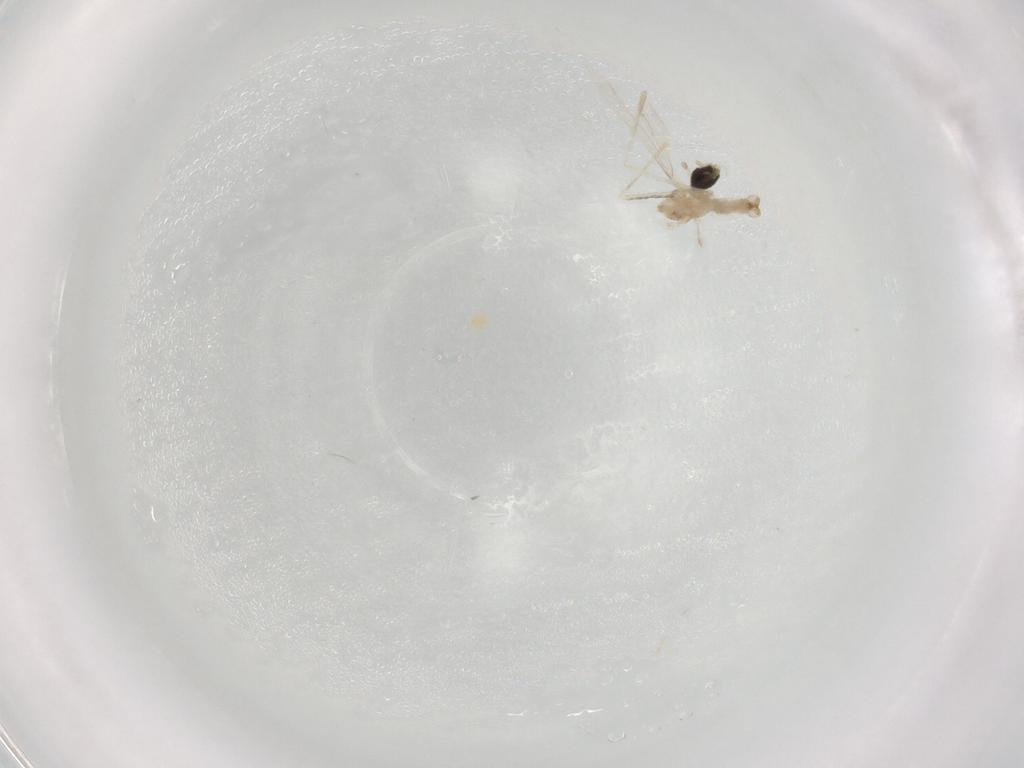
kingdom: Animalia
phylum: Arthropoda
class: Insecta
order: Diptera
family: Cecidomyiidae
